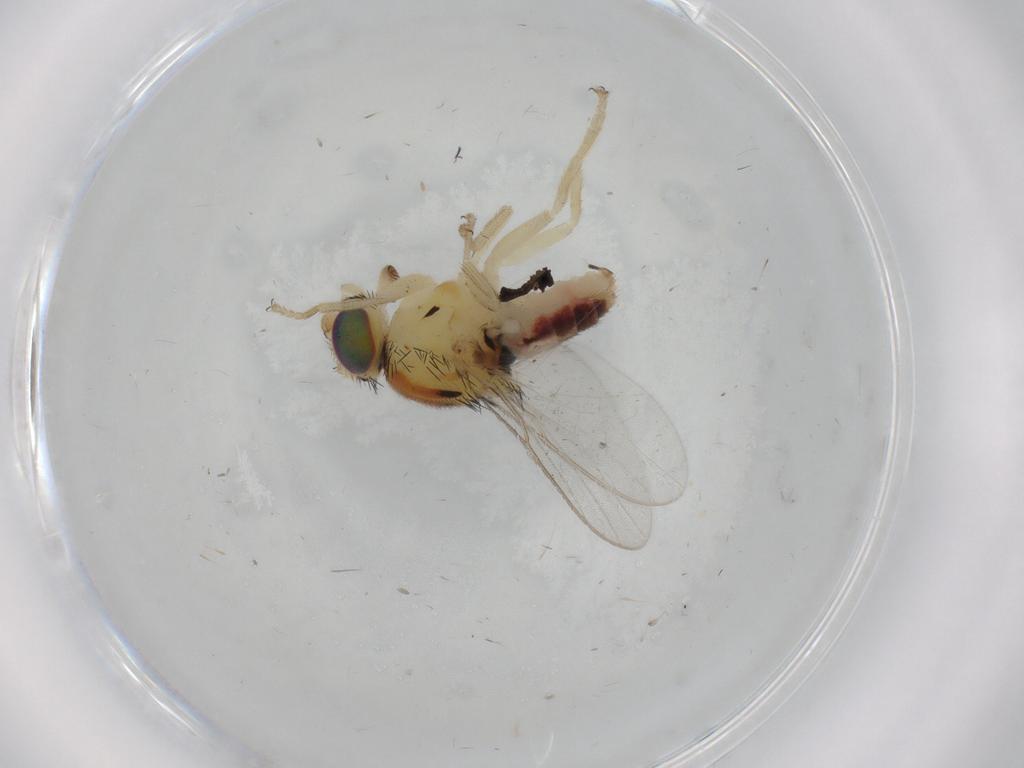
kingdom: Animalia
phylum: Arthropoda
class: Insecta
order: Diptera
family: Chloropidae
